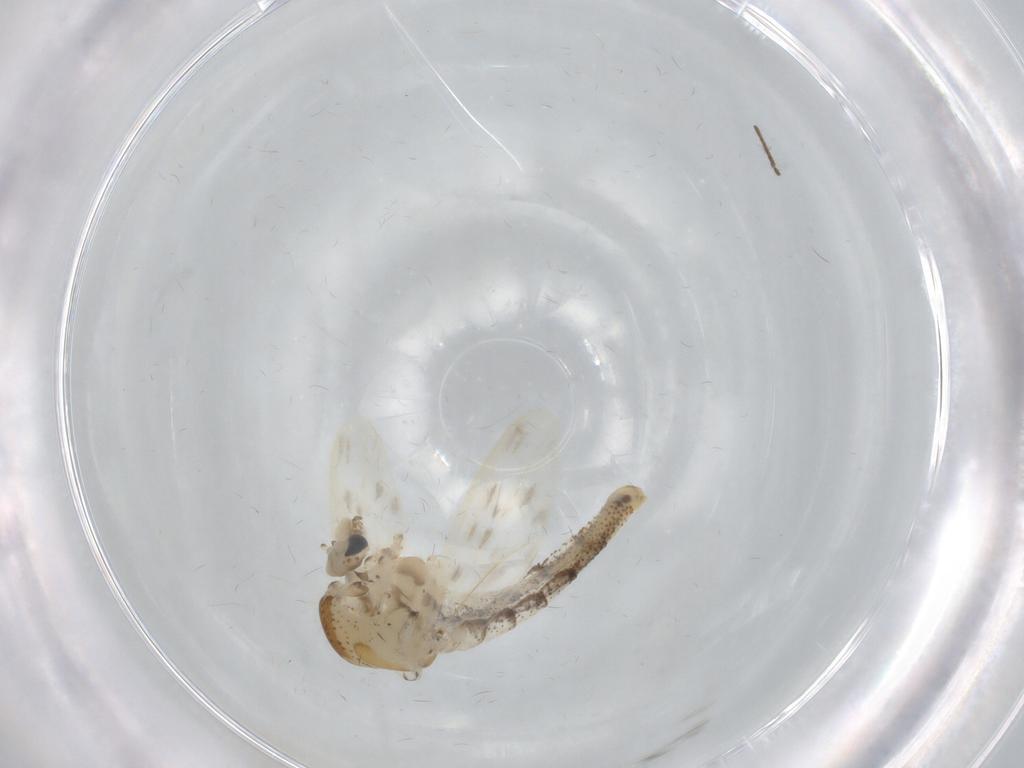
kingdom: Animalia
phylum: Arthropoda
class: Insecta
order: Diptera
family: Chaoboridae
